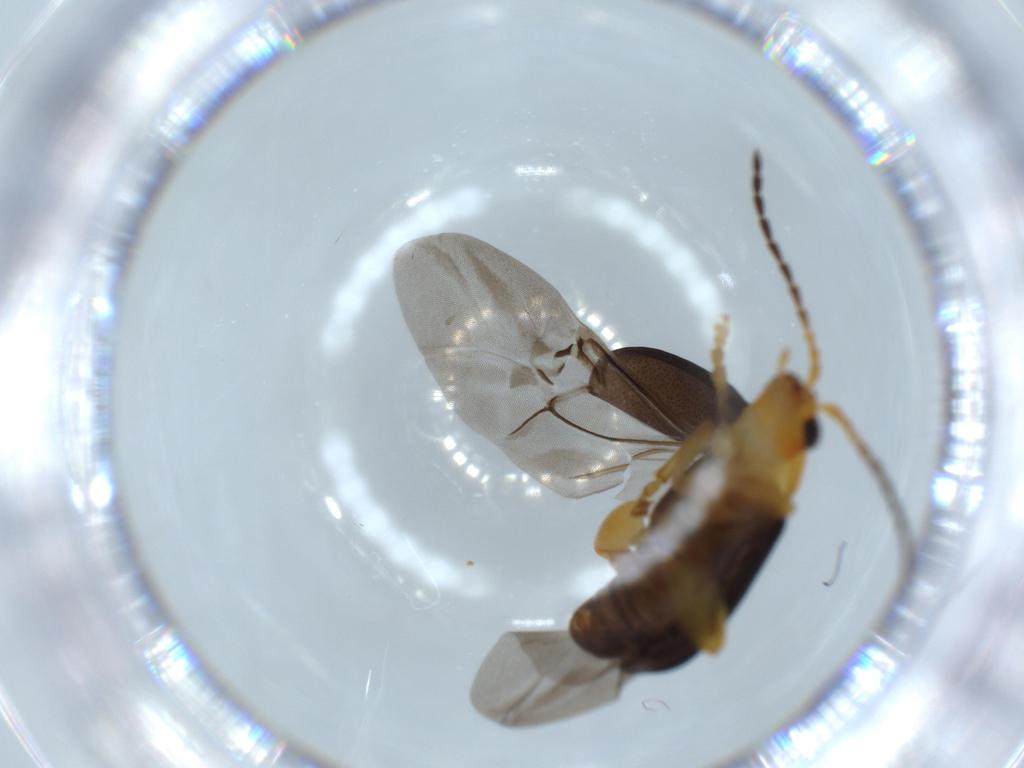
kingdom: Animalia
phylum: Arthropoda
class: Insecta
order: Coleoptera
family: Chrysomelidae
